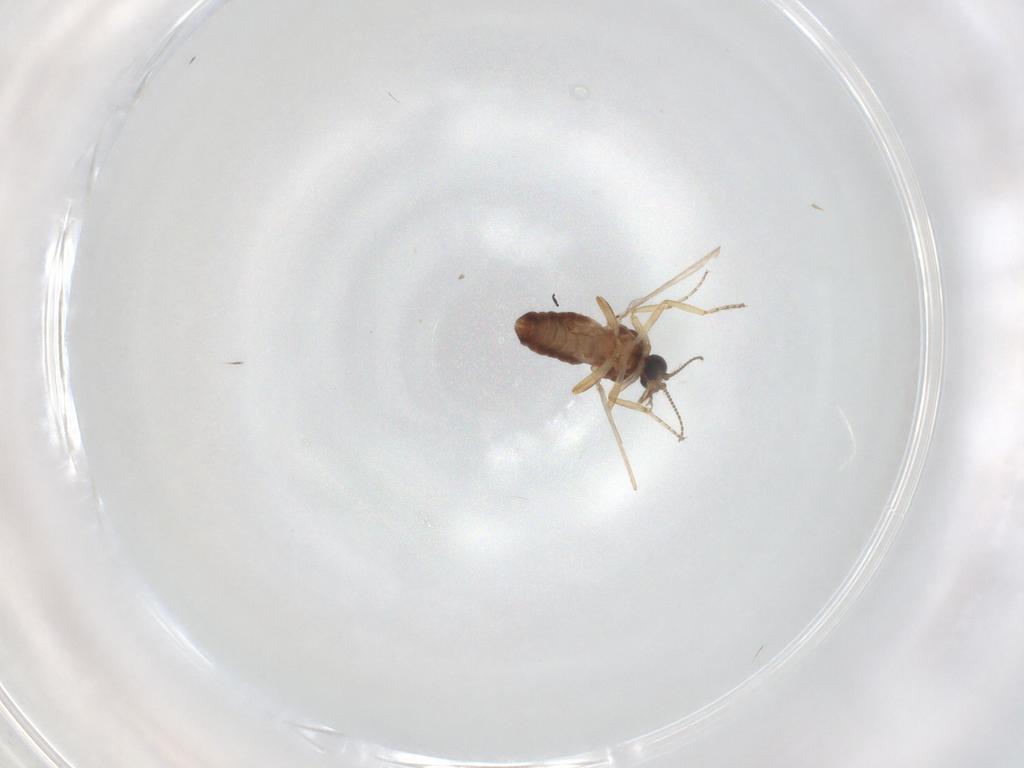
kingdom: Animalia
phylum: Arthropoda
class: Insecta
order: Diptera
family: Ceratopogonidae
